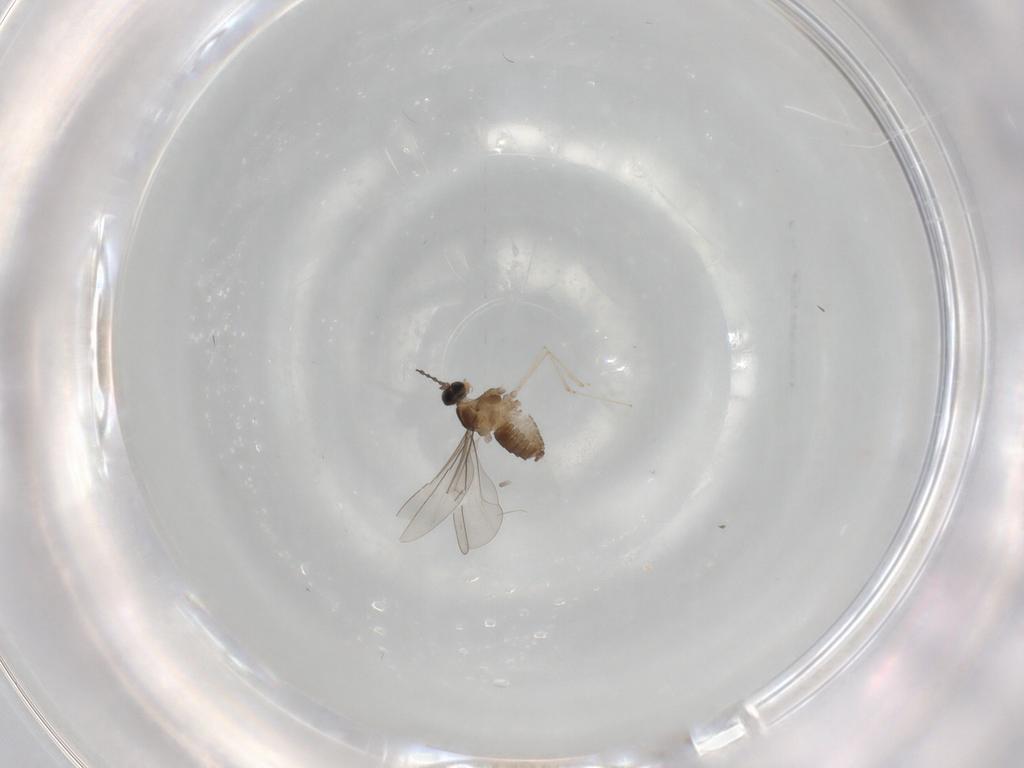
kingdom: Animalia
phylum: Arthropoda
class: Insecta
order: Diptera
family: Cecidomyiidae
